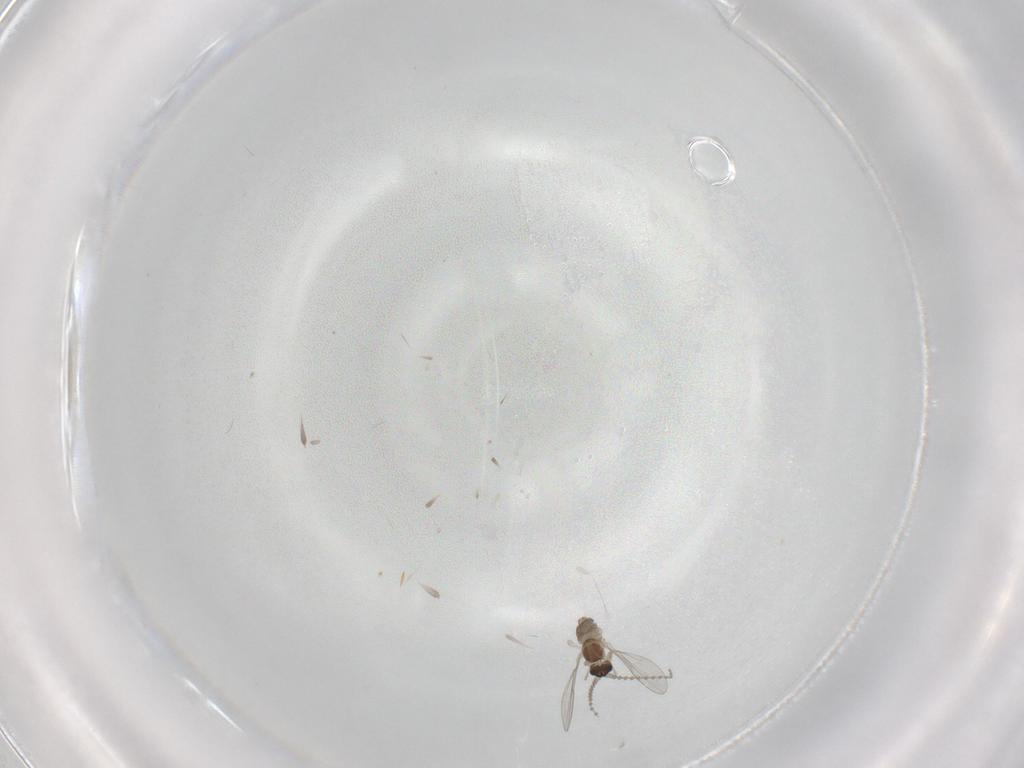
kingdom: Animalia
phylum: Arthropoda
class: Insecta
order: Diptera
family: Cecidomyiidae
